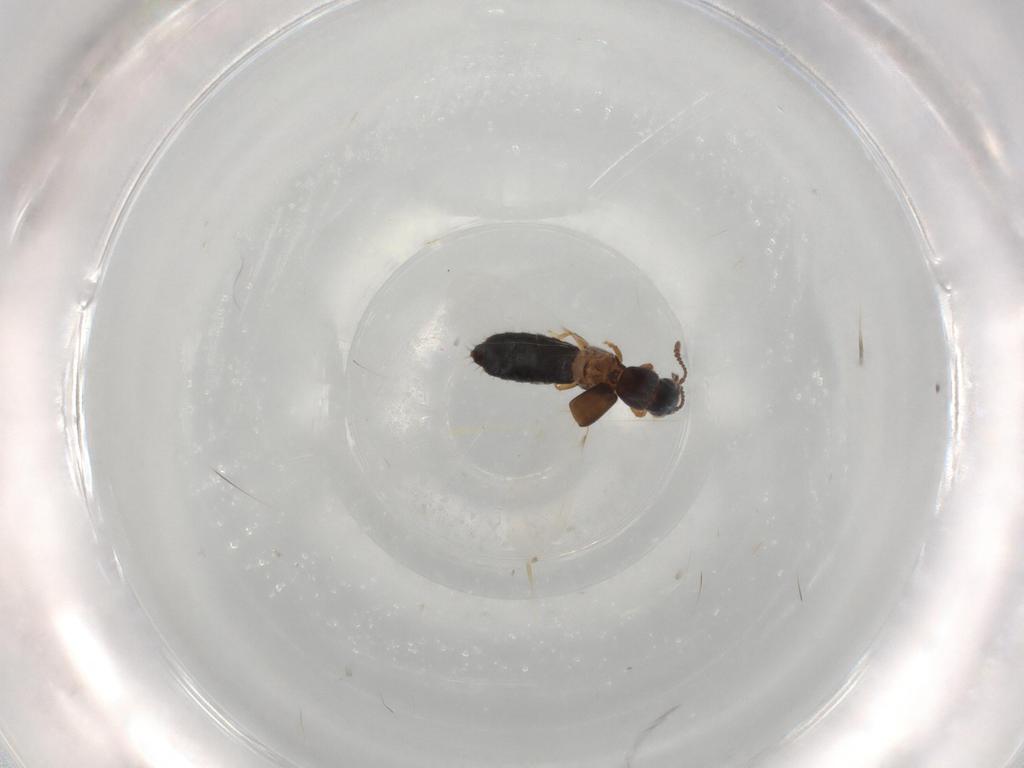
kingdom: Animalia
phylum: Arthropoda
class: Insecta
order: Coleoptera
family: Staphylinidae
